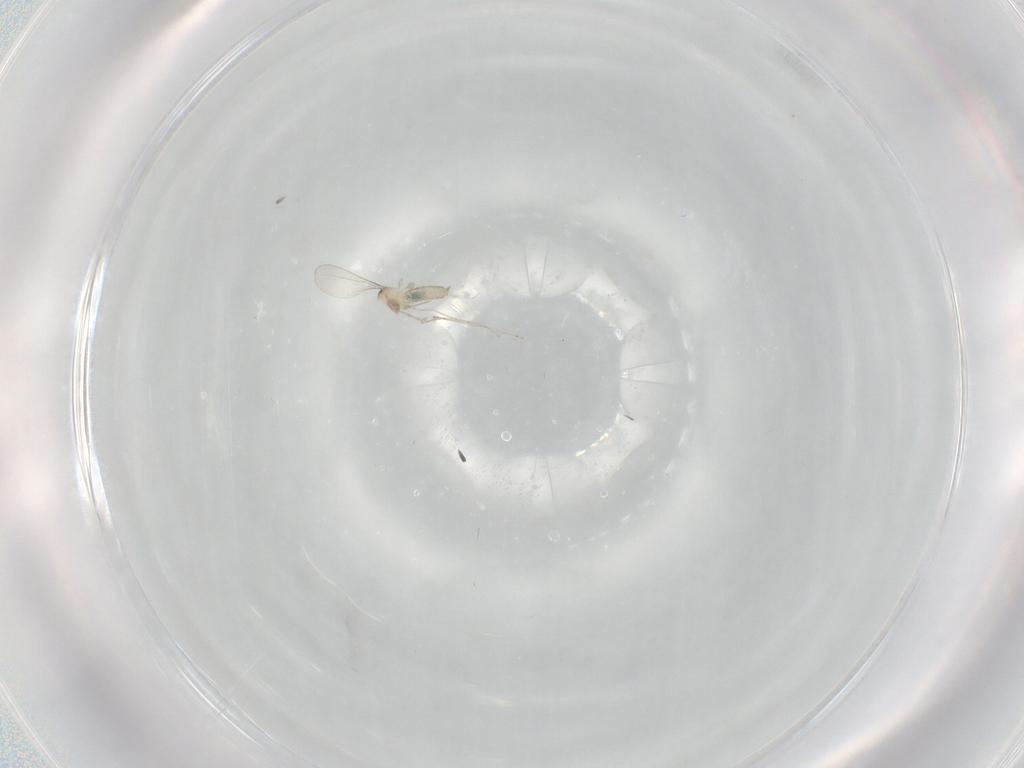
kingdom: Animalia
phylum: Arthropoda
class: Insecta
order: Diptera
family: Cecidomyiidae
